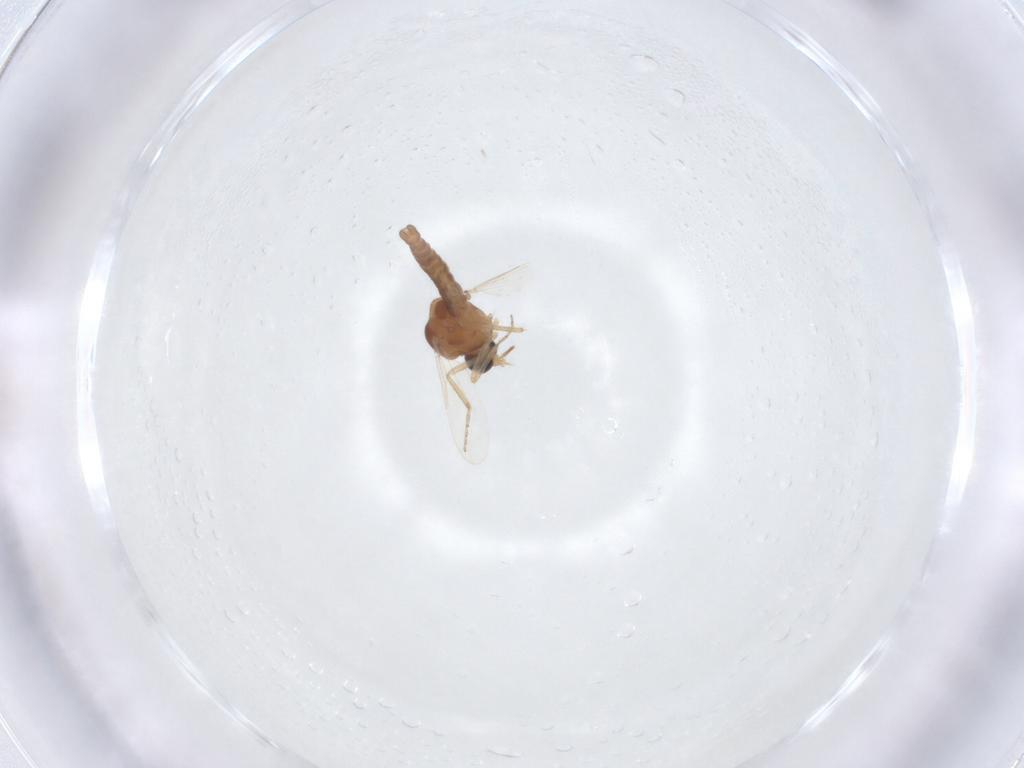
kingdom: Animalia
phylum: Arthropoda
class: Insecta
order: Diptera
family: Ceratopogonidae
